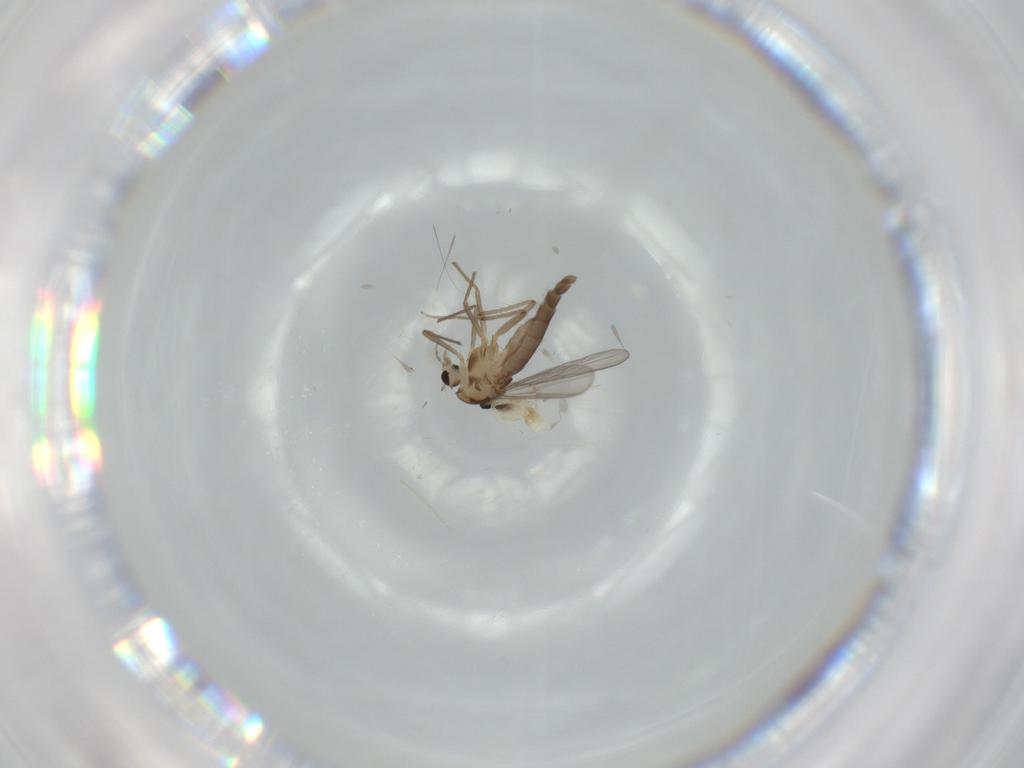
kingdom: Animalia
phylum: Arthropoda
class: Insecta
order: Diptera
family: Cecidomyiidae
